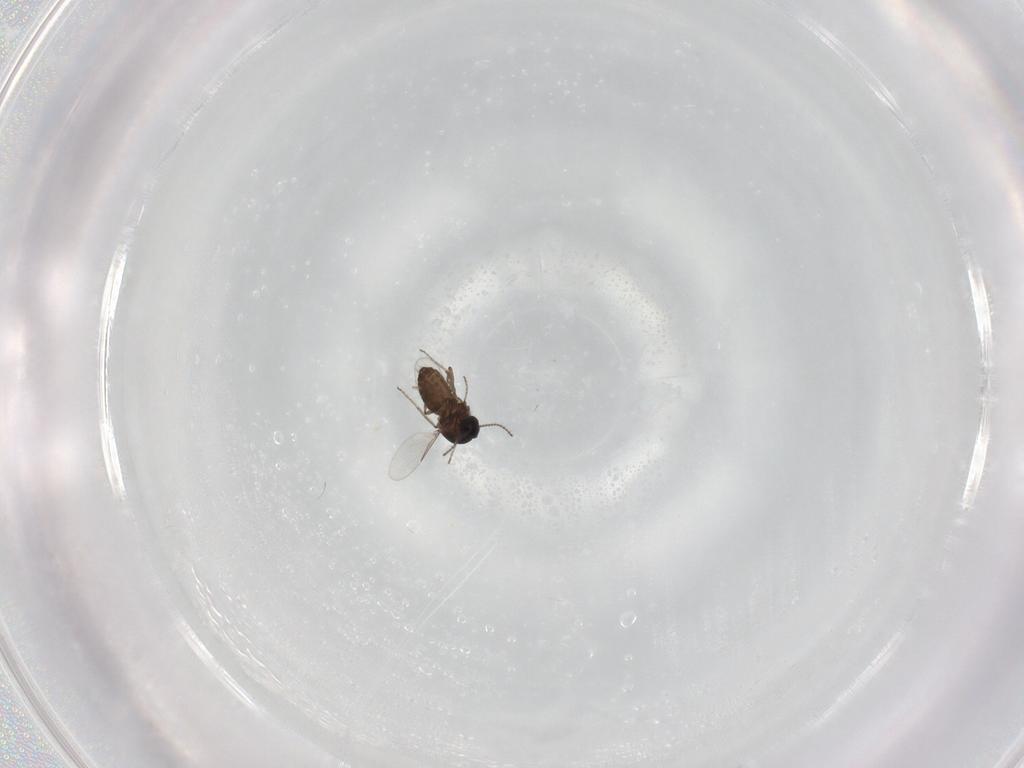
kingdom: Animalia
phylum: Arthropoda
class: Insecta
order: Diptera
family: Ceratopogonidae
